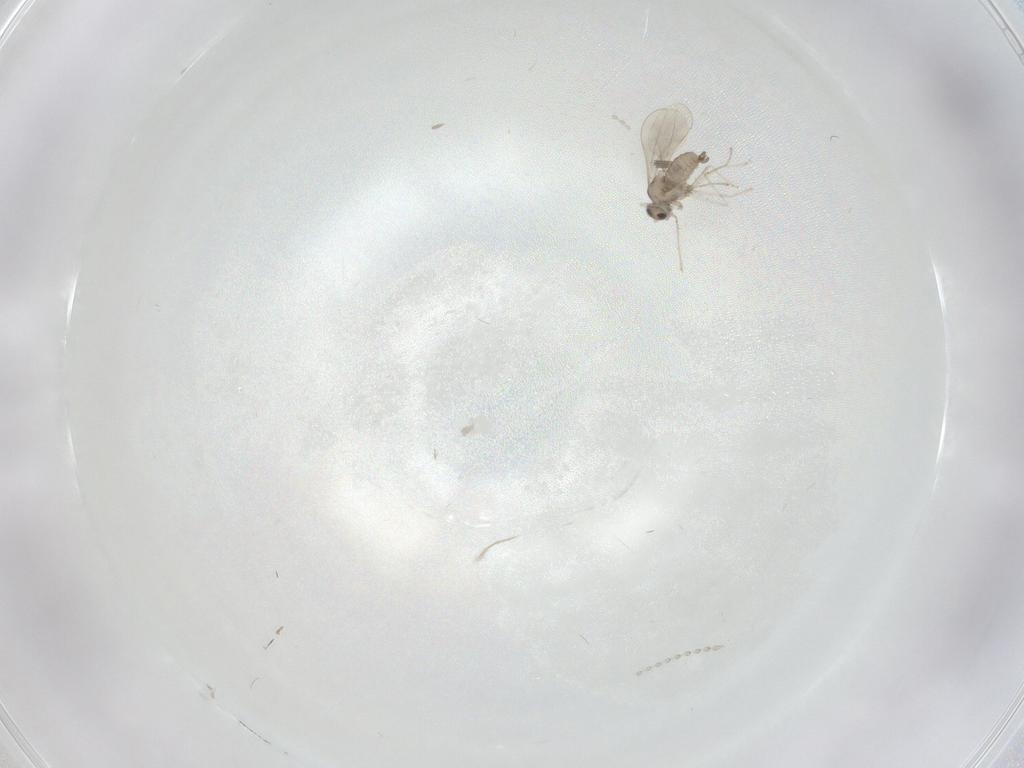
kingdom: Animalia
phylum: Arthropoda
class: Insecta
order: Diptera
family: Cecidomyiidae
